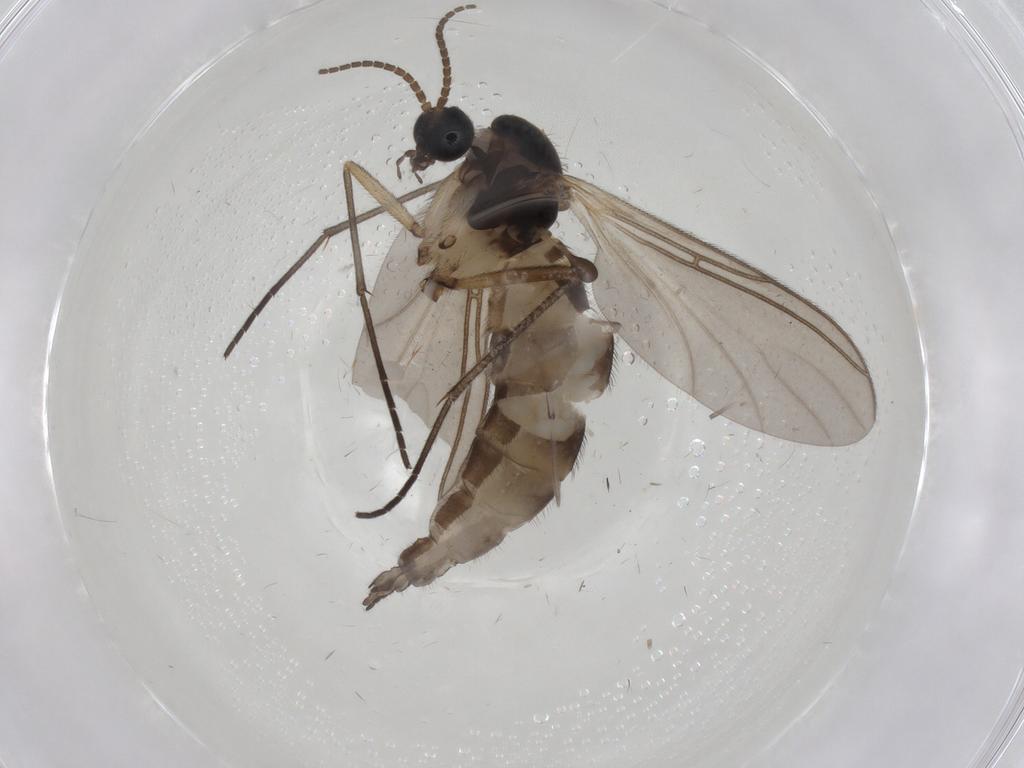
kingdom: Animalia
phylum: Arthropoda
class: Insecta
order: Diptera
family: Sciaridae
